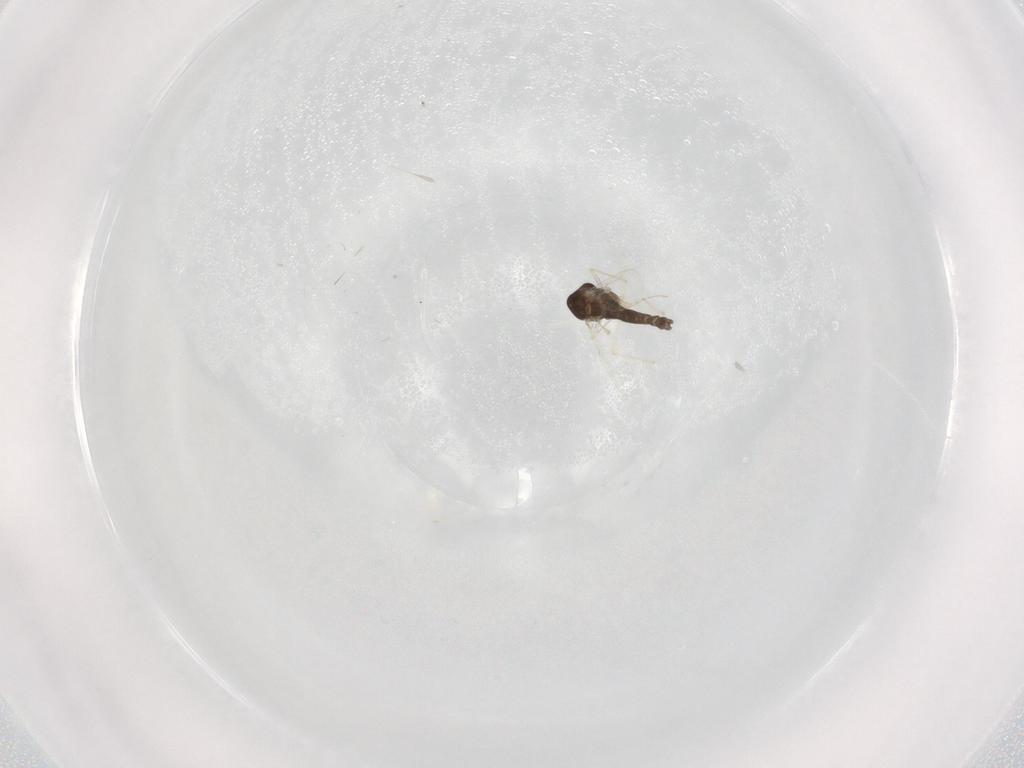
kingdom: Animalia
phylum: Arthropoda
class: Insecta
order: Diptera
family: Chironomidae
